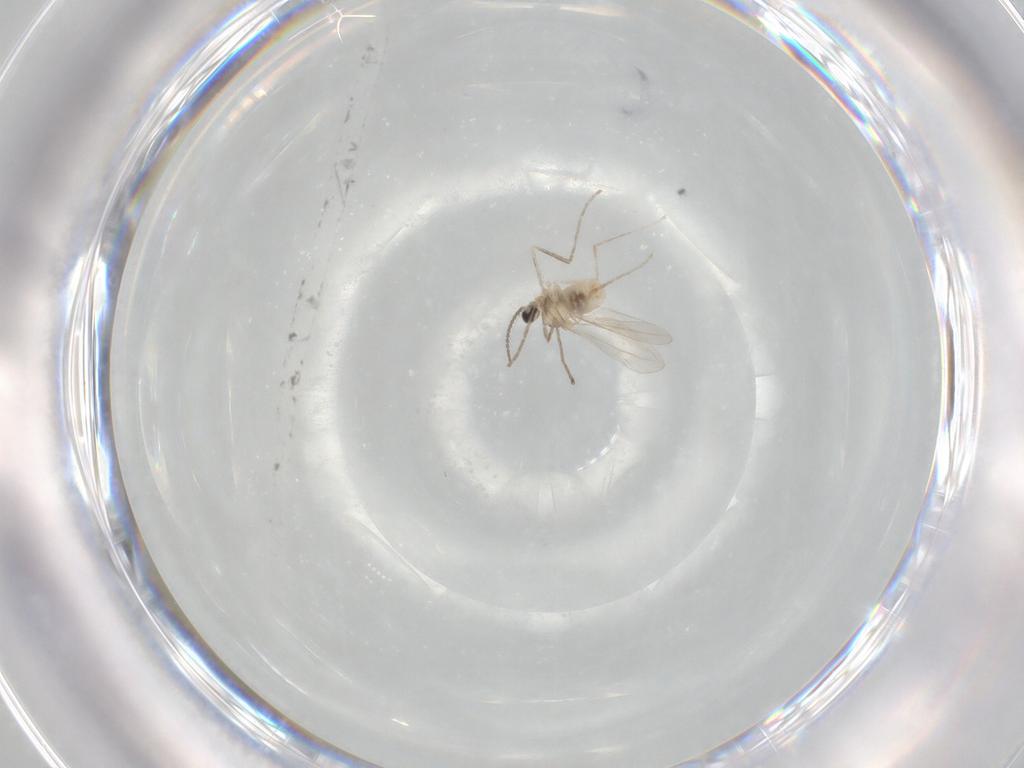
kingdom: Animalia
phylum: Arthropoda
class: Insecta
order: Diptera
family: Cecidomyiidae
